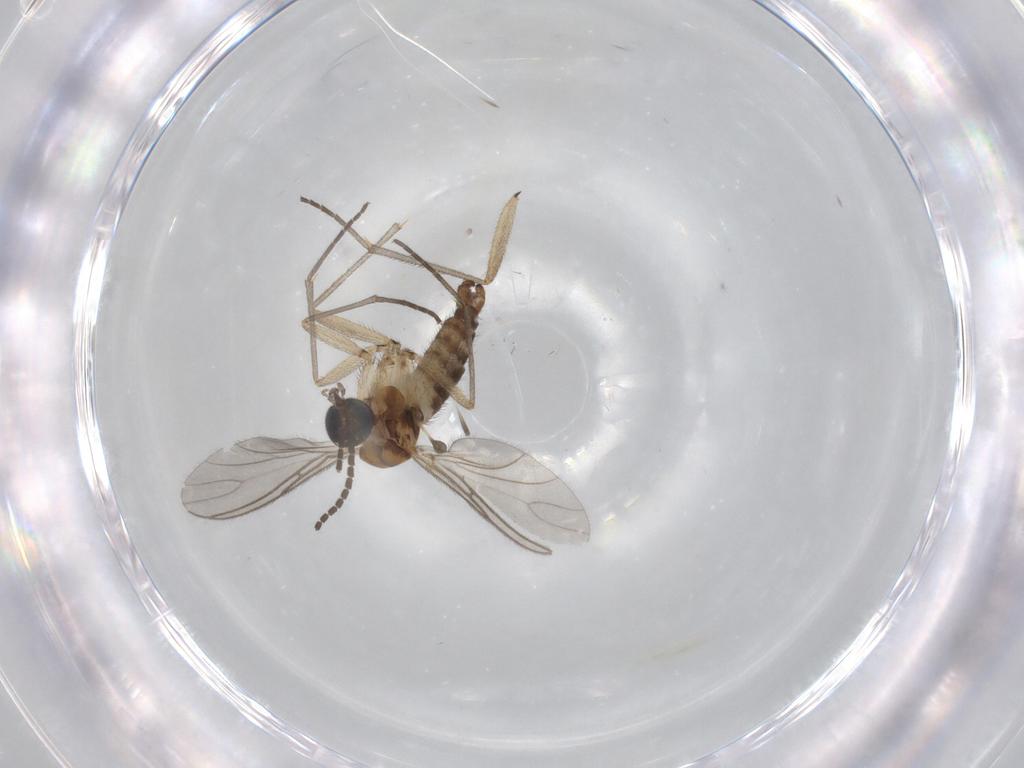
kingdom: Animalia
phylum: Arthropoda
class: Insecta
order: Diptera
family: Sciaridae
